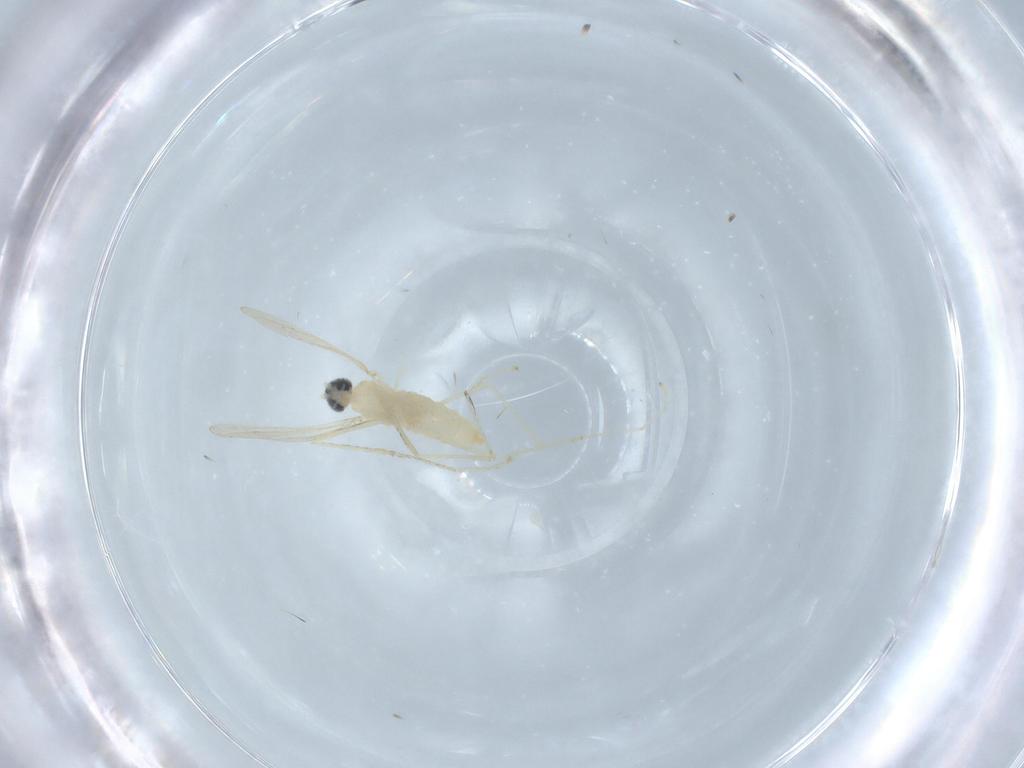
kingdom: Animalia
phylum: Arthropoda
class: Insecta
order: Diptera
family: Cecidomyiidae
